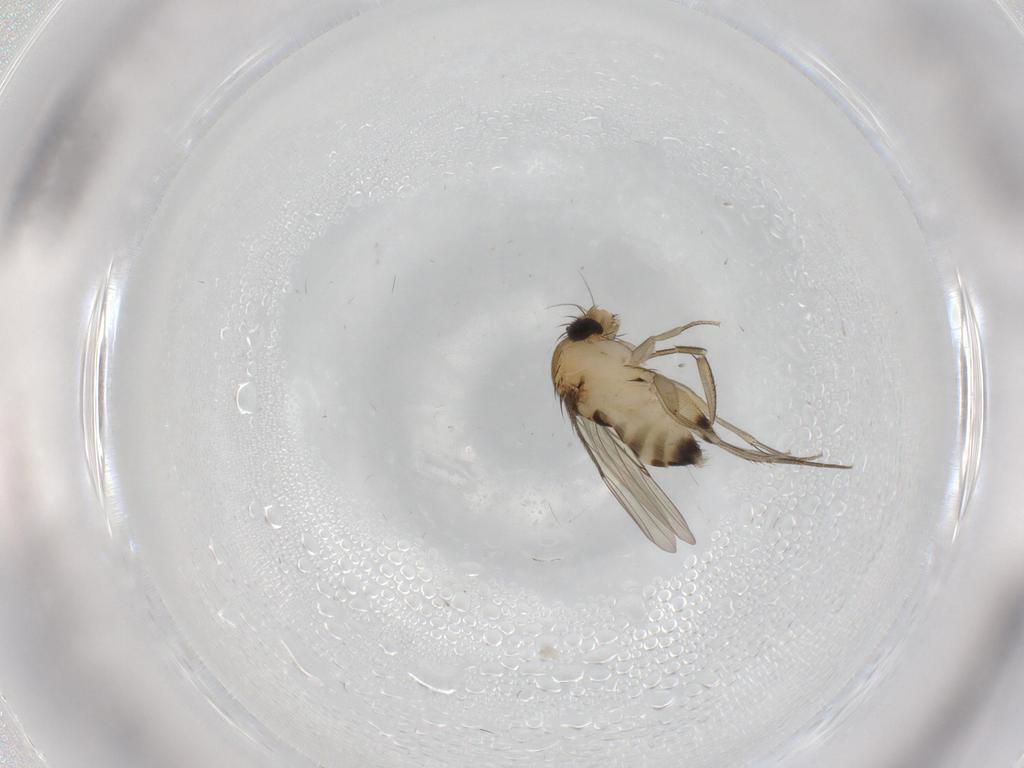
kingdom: Animalia
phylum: Arthropoda
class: Insecta
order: Diptera
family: Sphaeroceridae
